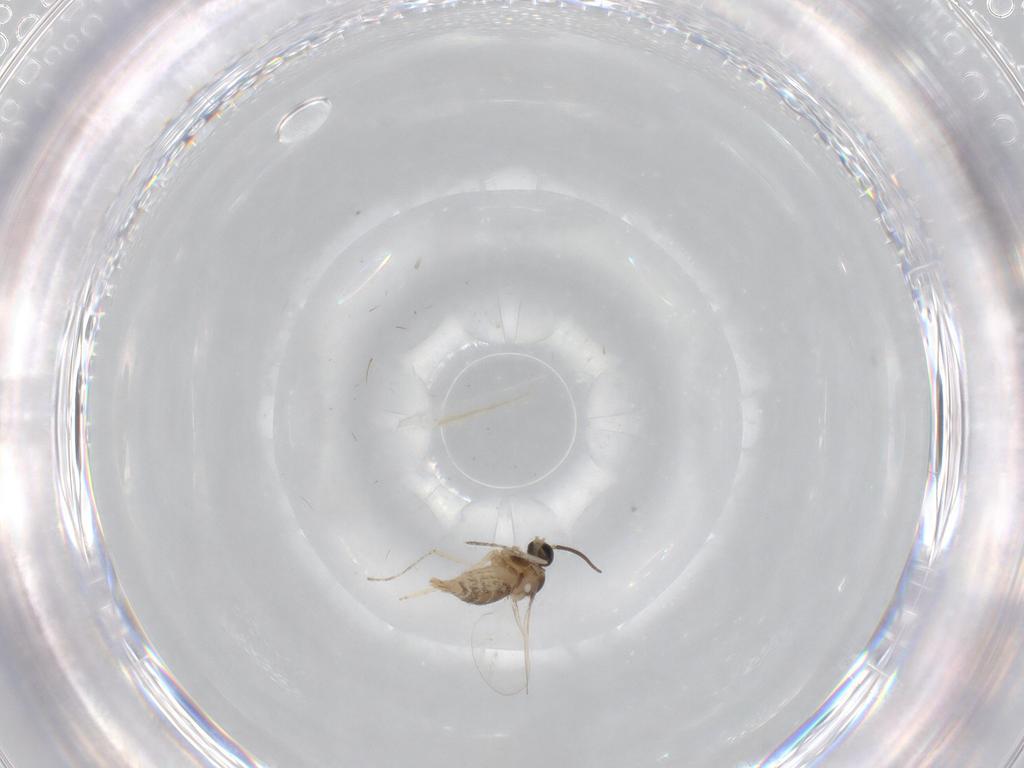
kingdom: Animalia
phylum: Arthropoda
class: Insecta
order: Diptera
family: Cecidomyiidae
